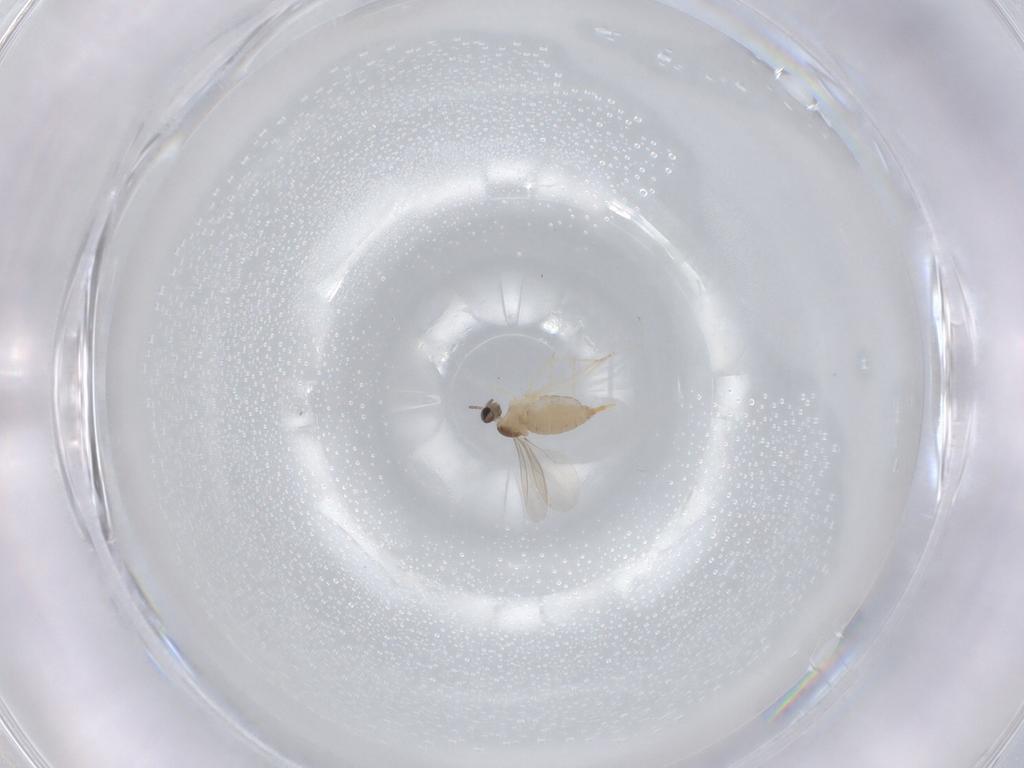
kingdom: Animalia
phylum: Arthropoda
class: Insecta
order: Diptera
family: Cecidomyiidae
